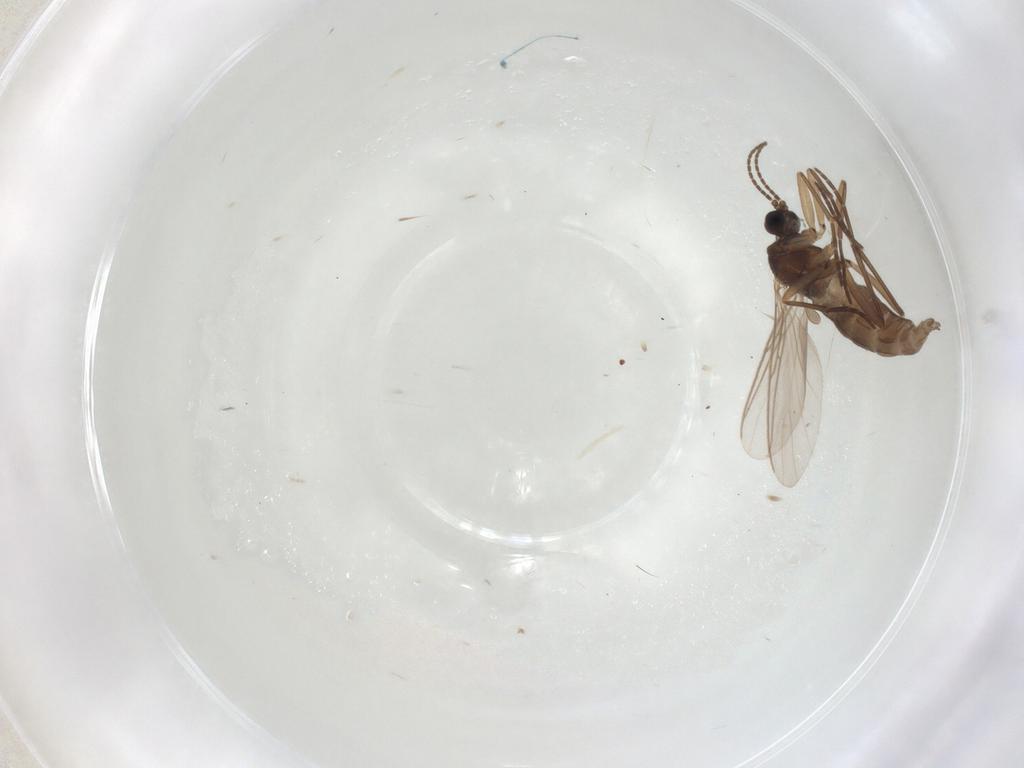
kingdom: Animalia
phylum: Arthropoda
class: Insecta
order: Diptera
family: Sciaridae
